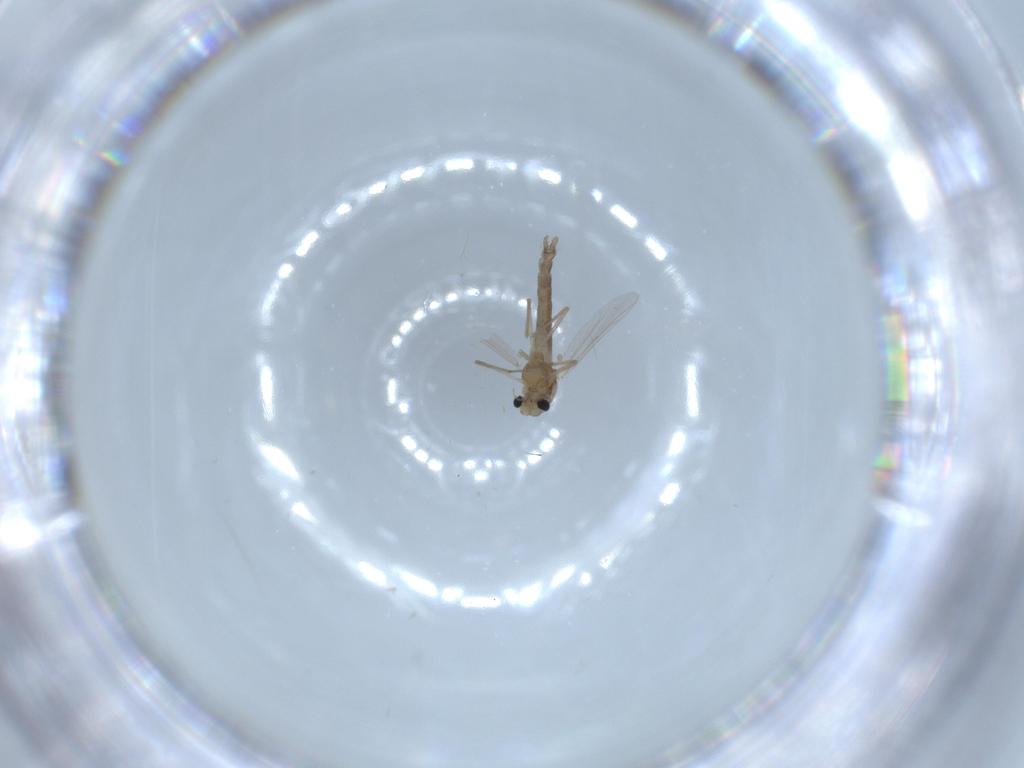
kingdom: Animalia
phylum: Arthropoda
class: Insecta
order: Diptera
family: Chironomidae
